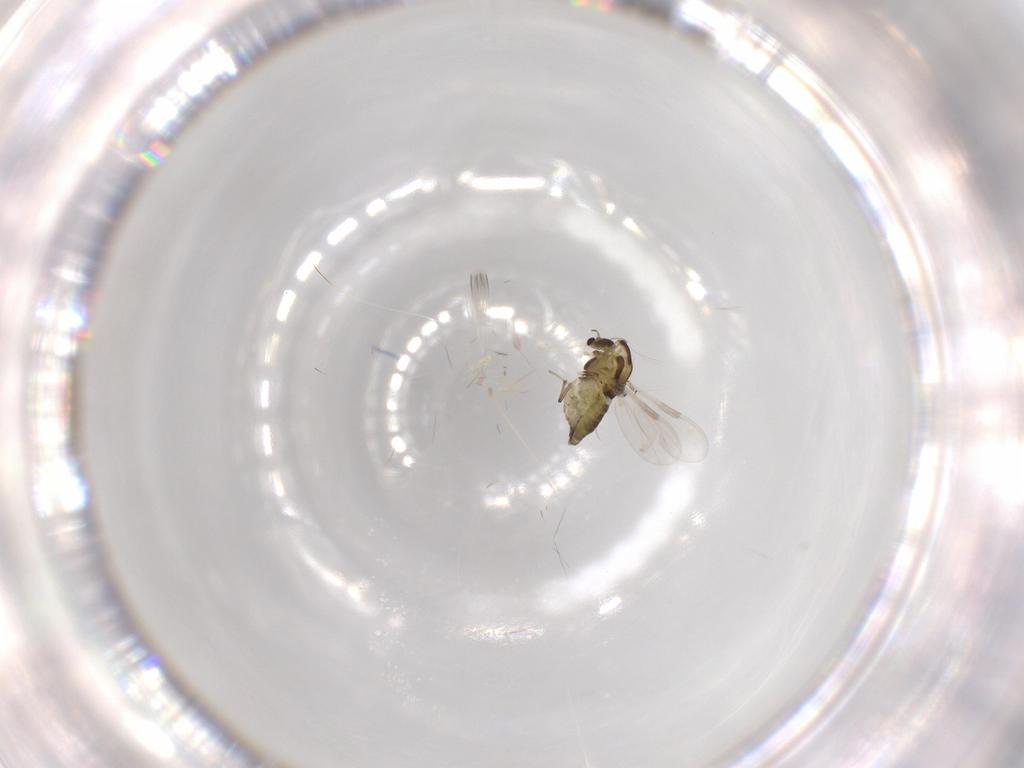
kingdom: Animalia
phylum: Arthropoda
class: Insecta
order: Diptera
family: Chironomidae
